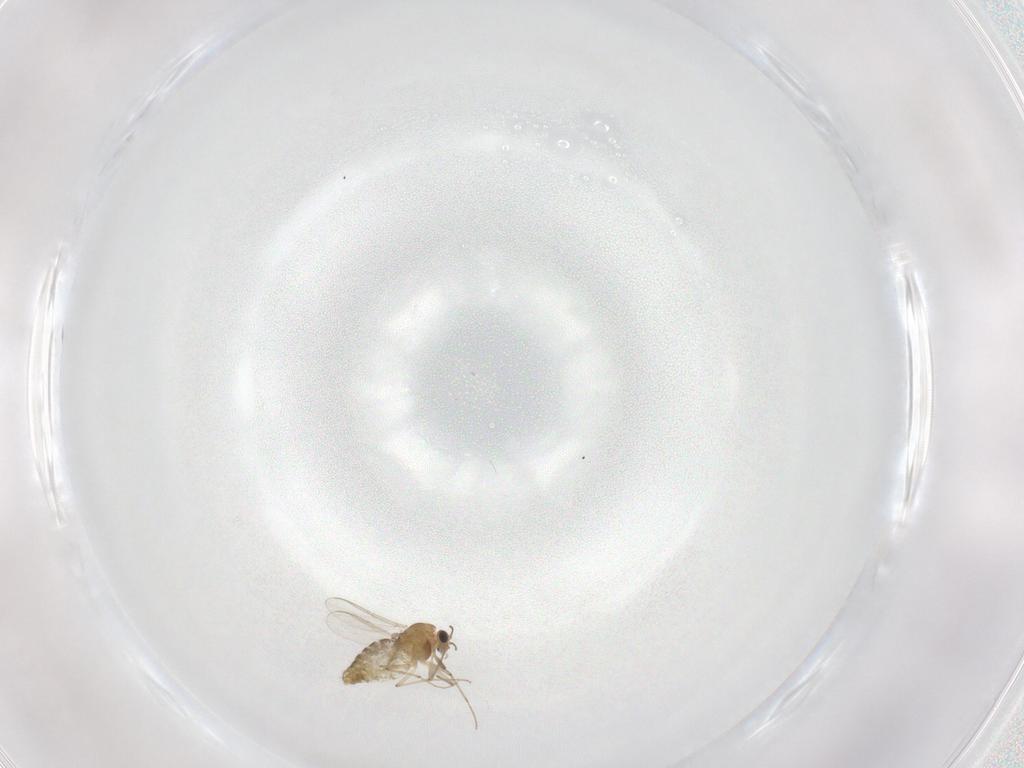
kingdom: Animalia
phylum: Arthropoda
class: Insecta
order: Diptera
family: Chironomidae
